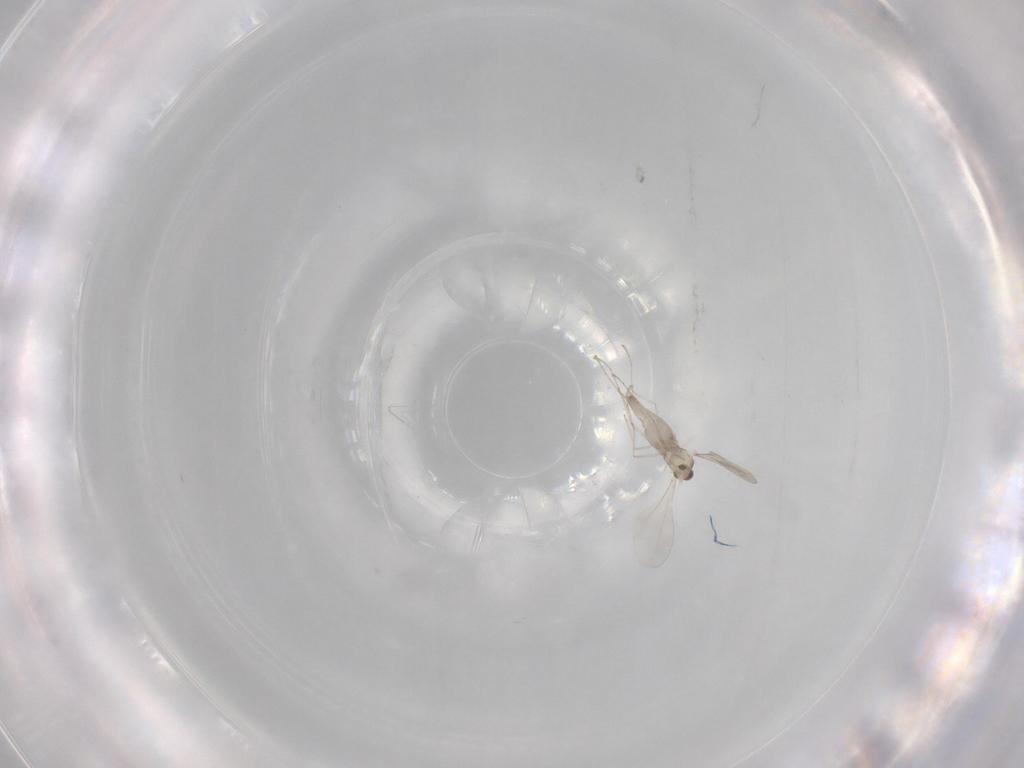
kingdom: Animalia
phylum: Arthropoda
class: Insecta
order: Diptera
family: Cecidomyiidae
